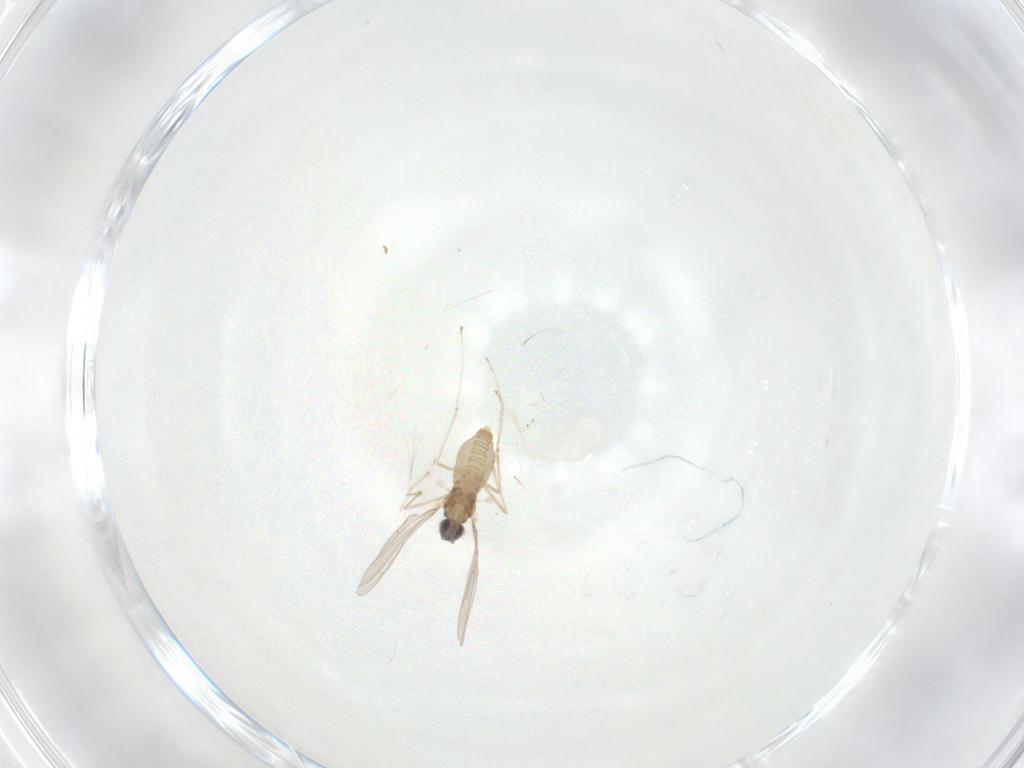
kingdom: Animalia
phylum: Arthropoda
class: Insecta
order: Diptera
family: Cecidomyiidae
